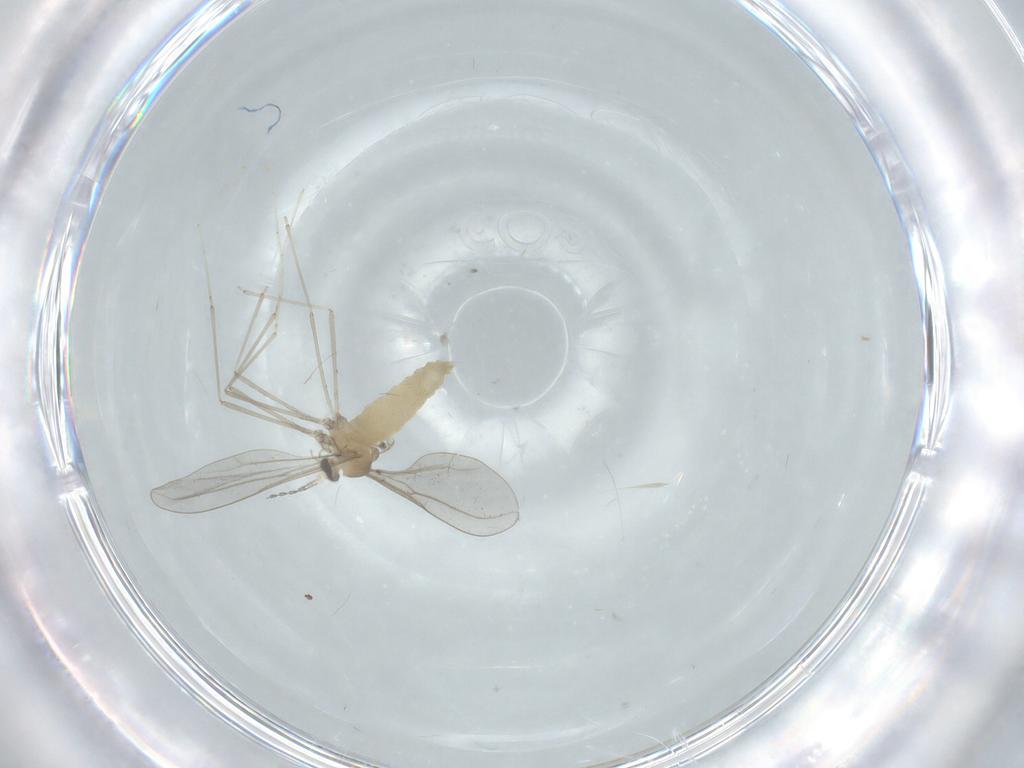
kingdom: Animalia
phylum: Arthropoda
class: Insecta
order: Diptera
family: Cecidomyiidae
